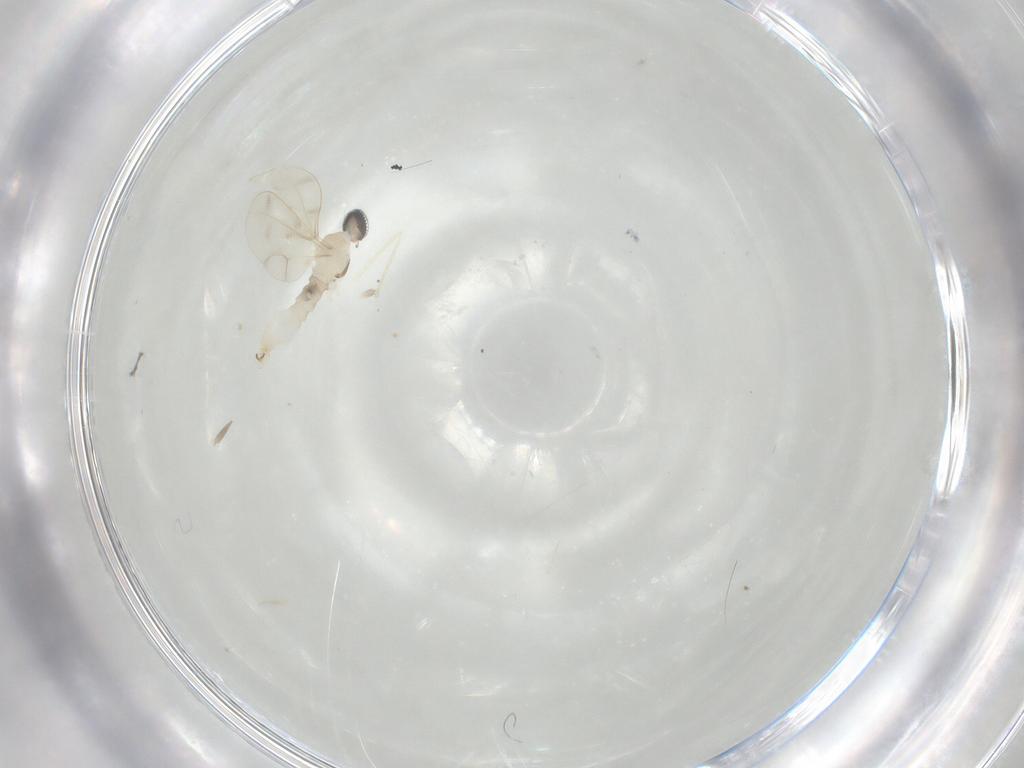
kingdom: Animalia
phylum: Arthropoda
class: Insecta
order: Diptera
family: Cecidomyiidae
